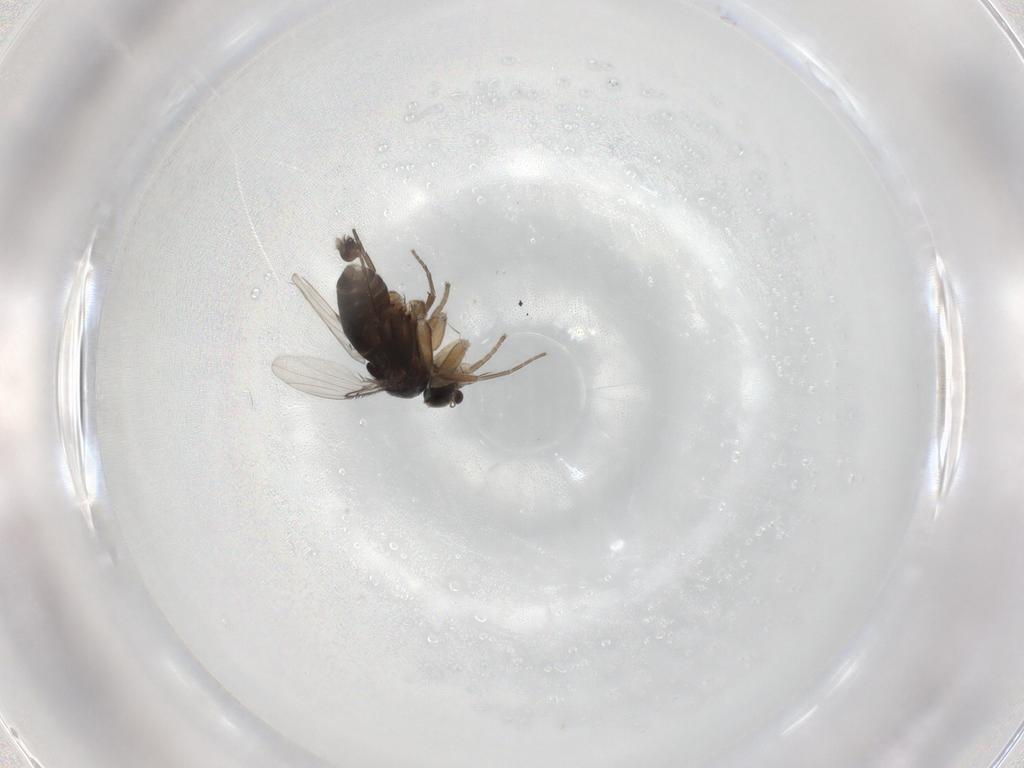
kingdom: Animalia
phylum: Arthropoda
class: Insecta
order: Diptera
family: Phoridae
